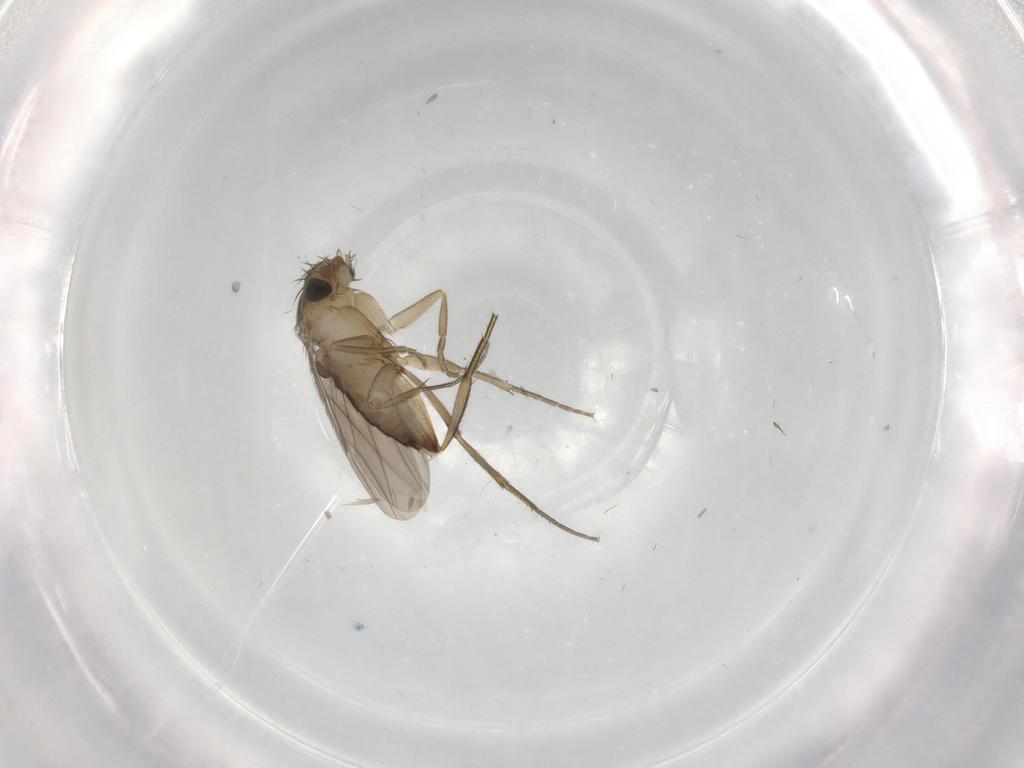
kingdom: Animalia
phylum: Arthropoda
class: Insecta
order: Diptera
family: Phoridae
